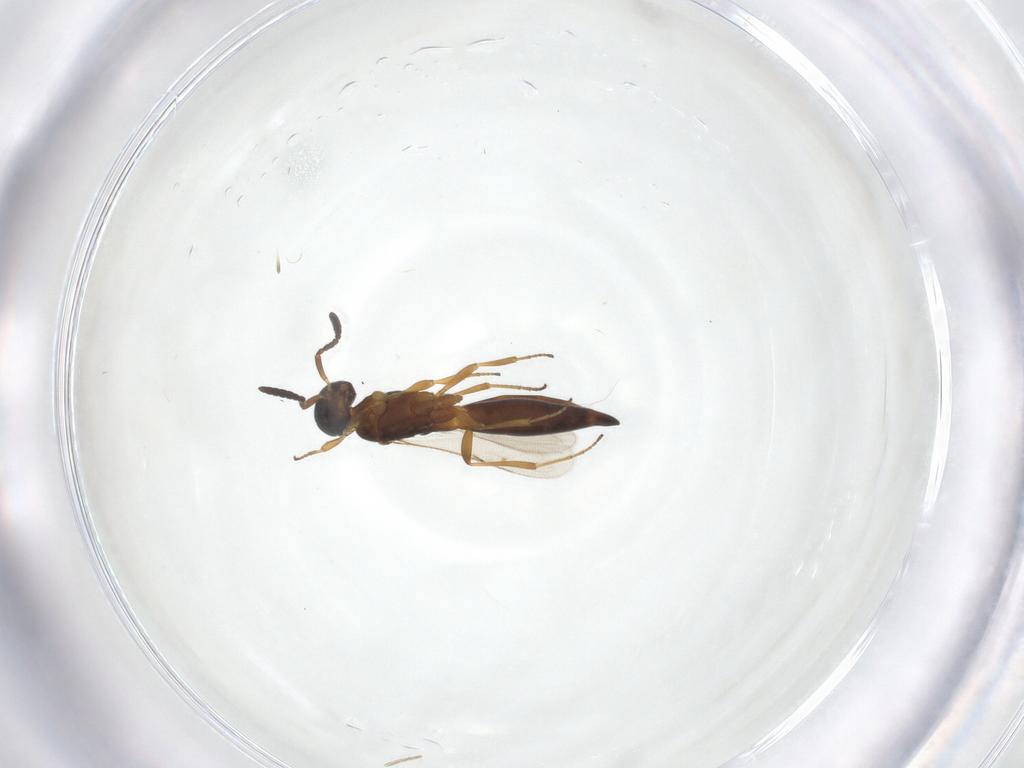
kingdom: Animalia
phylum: Arthropoda
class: Insecta
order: Hymenoptera
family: Scelionidae
